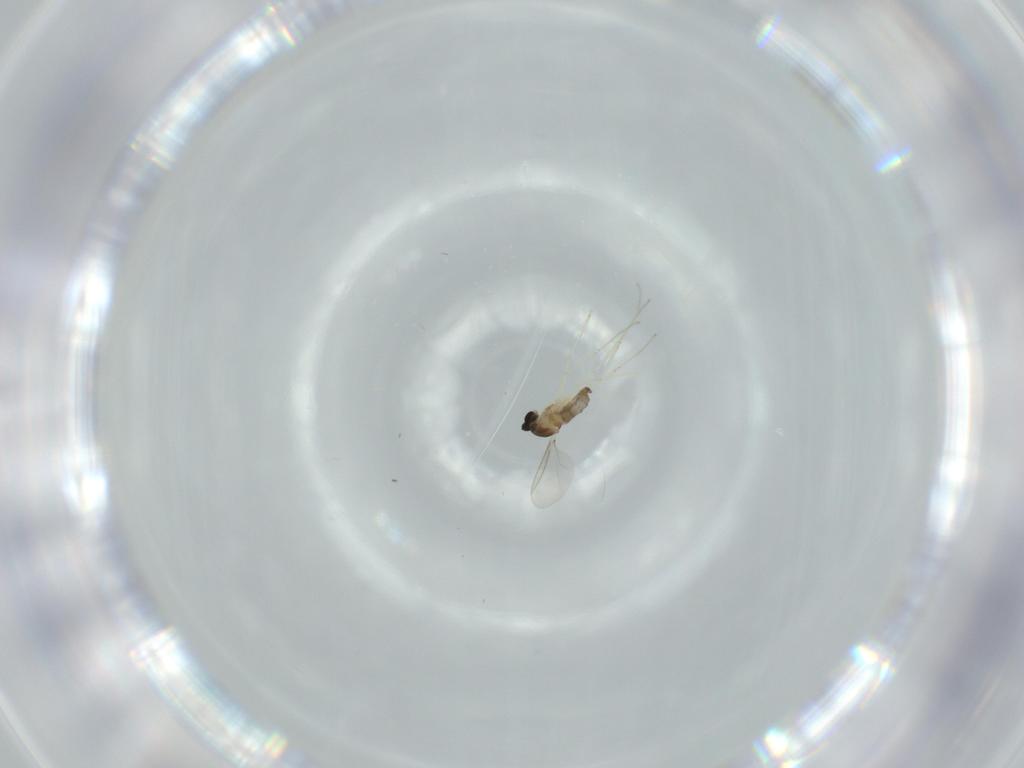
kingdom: Animalia
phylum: Arthropoda
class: Insecta
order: Diptera
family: Cecidomyiidae
